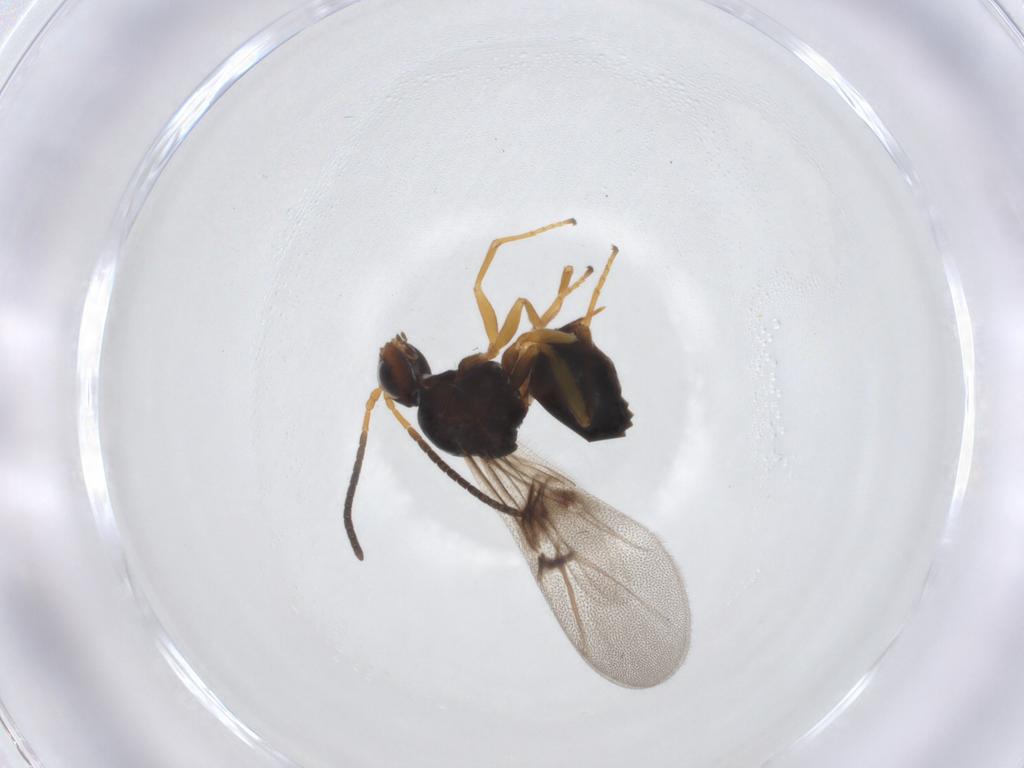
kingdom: Animalia
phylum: Arthropoda
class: Insecta
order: Hymenoptera
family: Cynipidae
